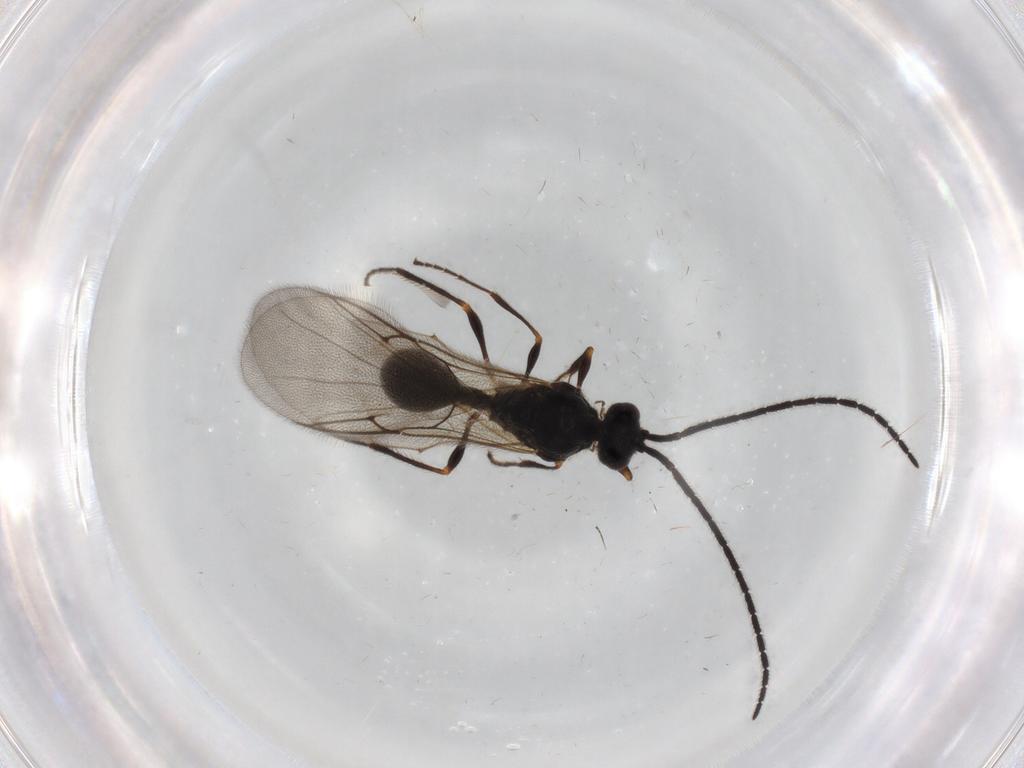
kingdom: Animalia
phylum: Arthropoda
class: Insecta
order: Hymenoptera
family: Diapriidae
